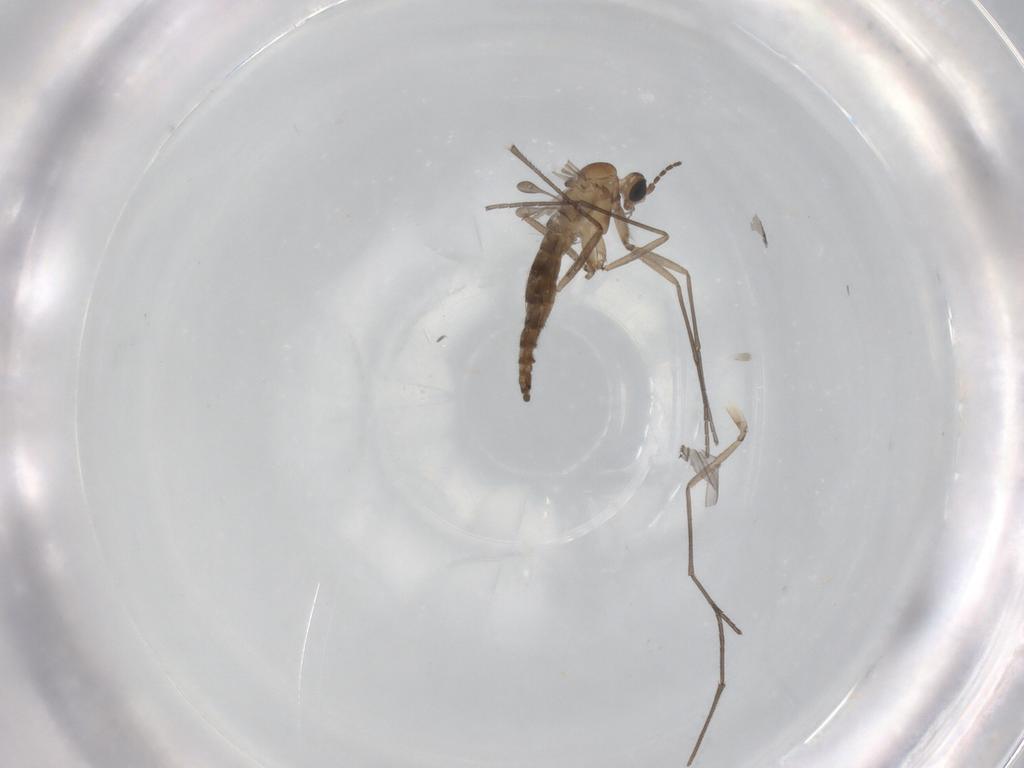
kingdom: Animalia
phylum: Arthropoda
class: Insecta
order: Diptera
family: Sciaridae
